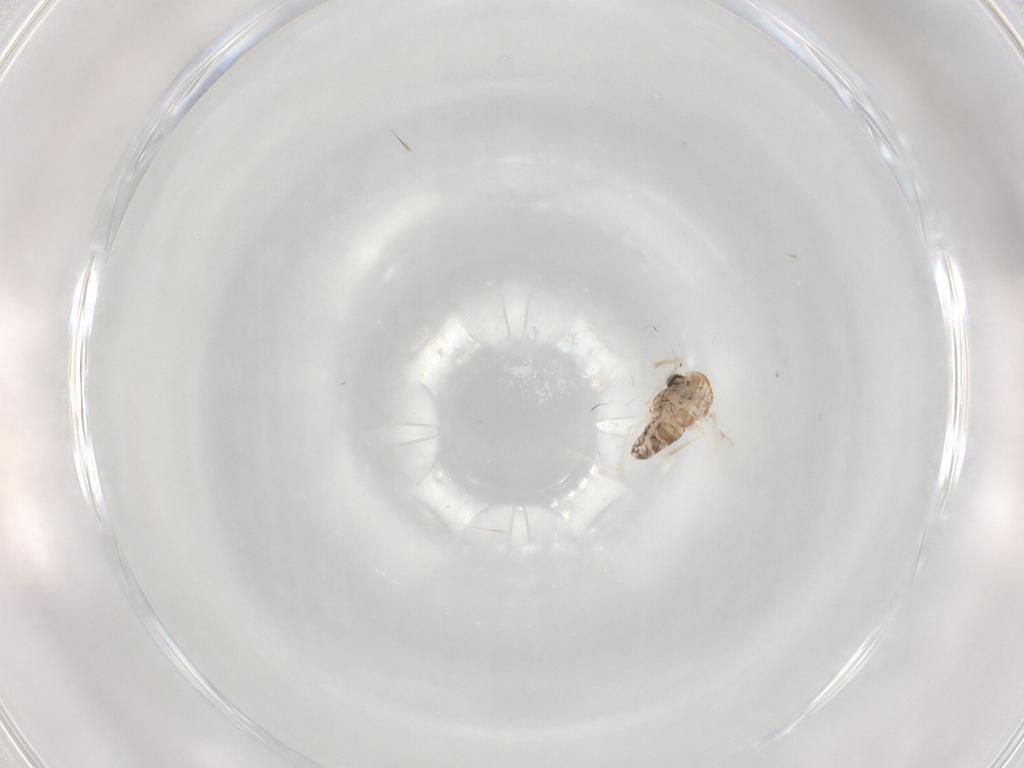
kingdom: Animalia
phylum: Arthropoda
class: Insecta
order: Diptera
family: Chironomidae
